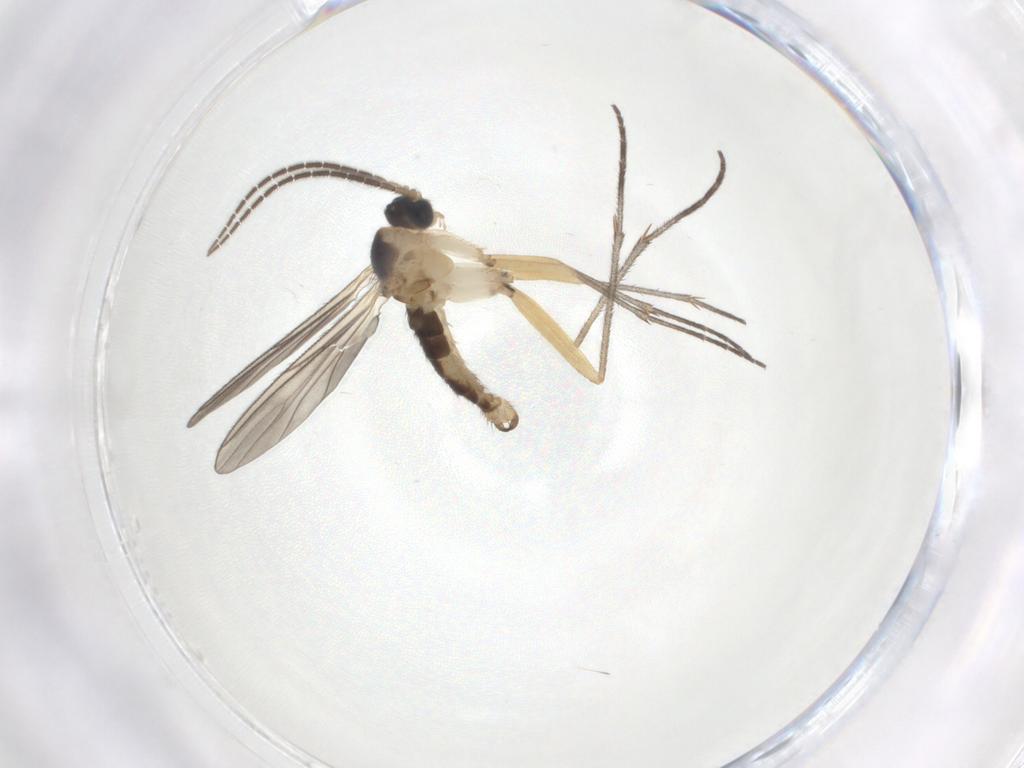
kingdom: Animalia
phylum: Arthropoda
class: Insecta
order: Diptera
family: Sciaridae
